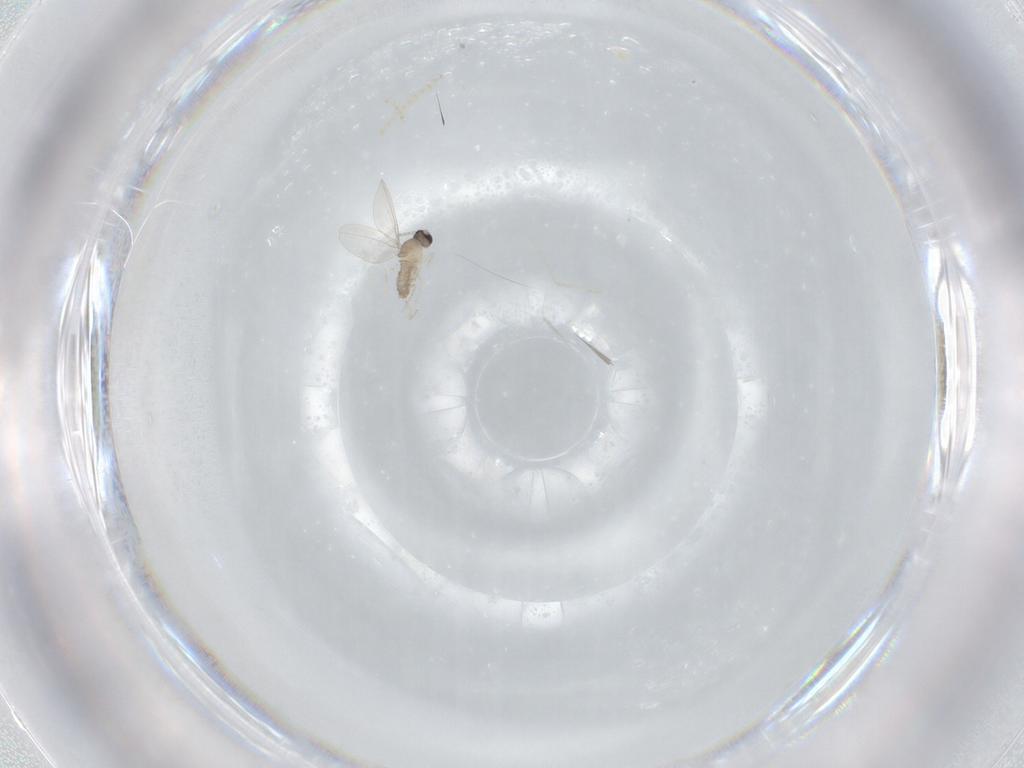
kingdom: Animalia
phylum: Arthropoda
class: Insecta
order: Diptera
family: Cecidomyiidae
